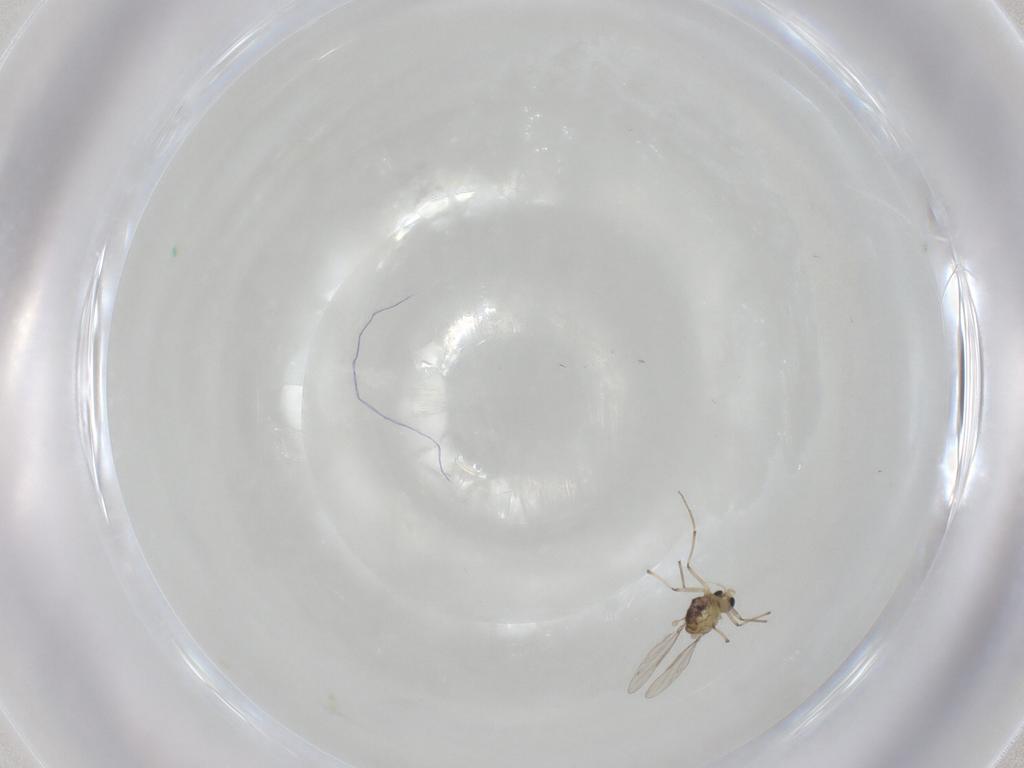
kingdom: Animalia
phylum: Arthropoda
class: Insecta
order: Diptera
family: Chironomidae
